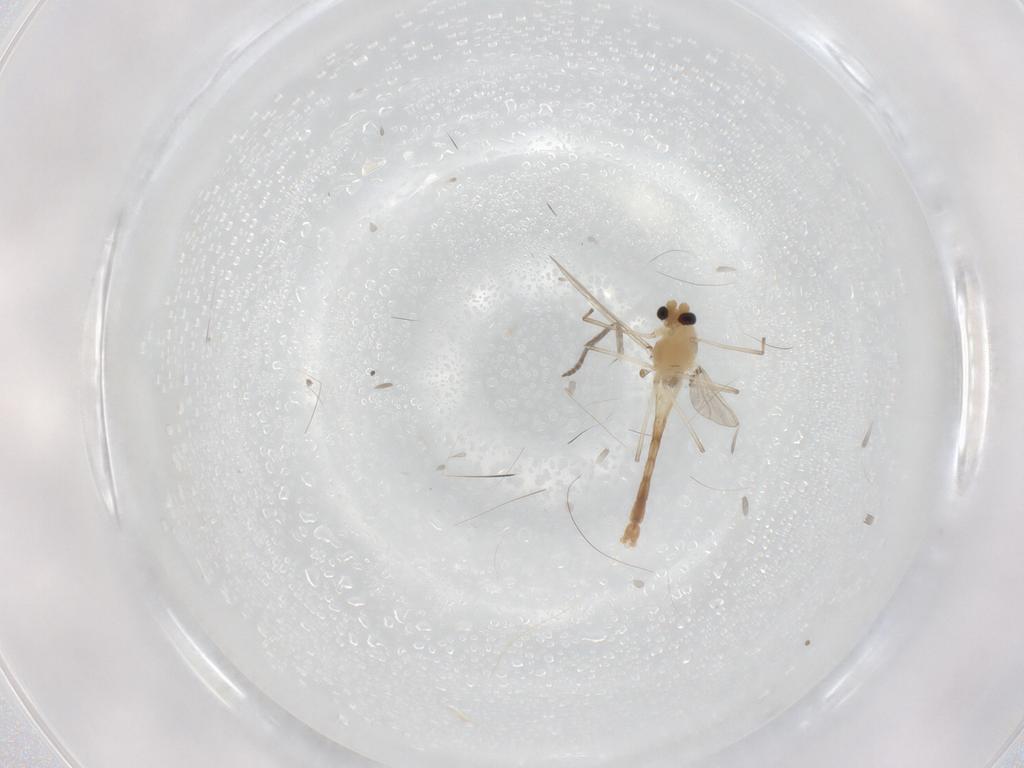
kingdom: Animalia
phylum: Arthropoda
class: Insecta
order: Diptera
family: Chironomidae
